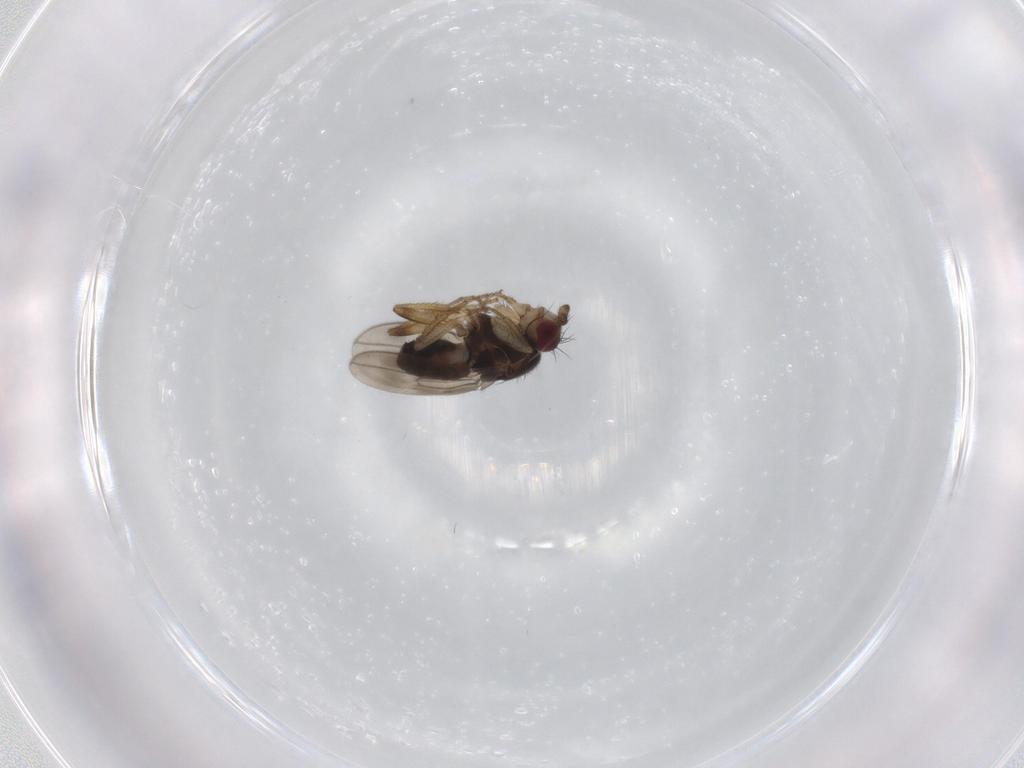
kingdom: Animalia
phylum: Arthropoda
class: Insecta
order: Diptera
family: Sphaeroceridae
